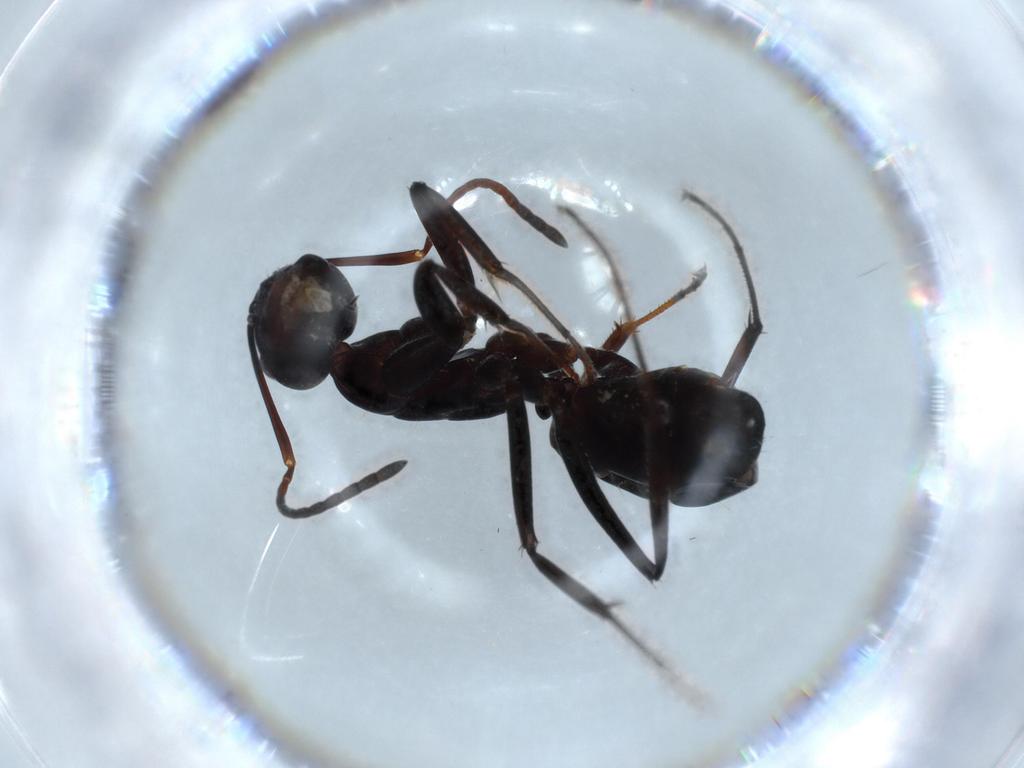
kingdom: Animalia
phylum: Arthropoda
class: Insecta
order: Hymenoptera
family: Formicidae
